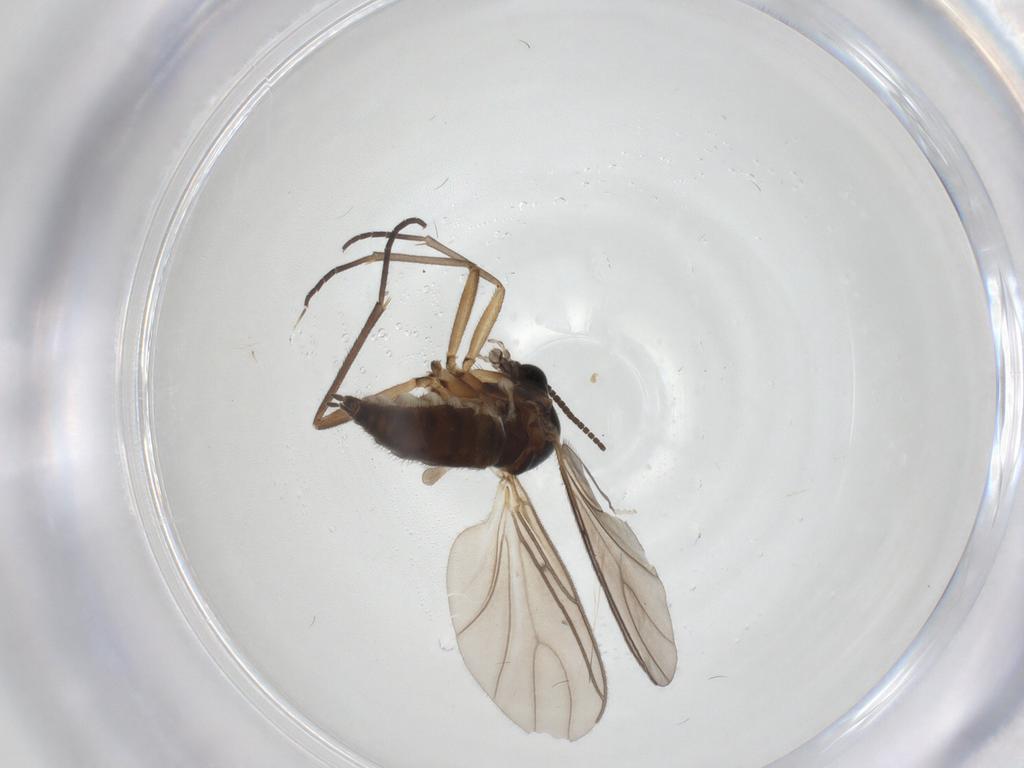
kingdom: Animalia
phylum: Arthropoda
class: Insecta
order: Diptera
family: Sciaridae
